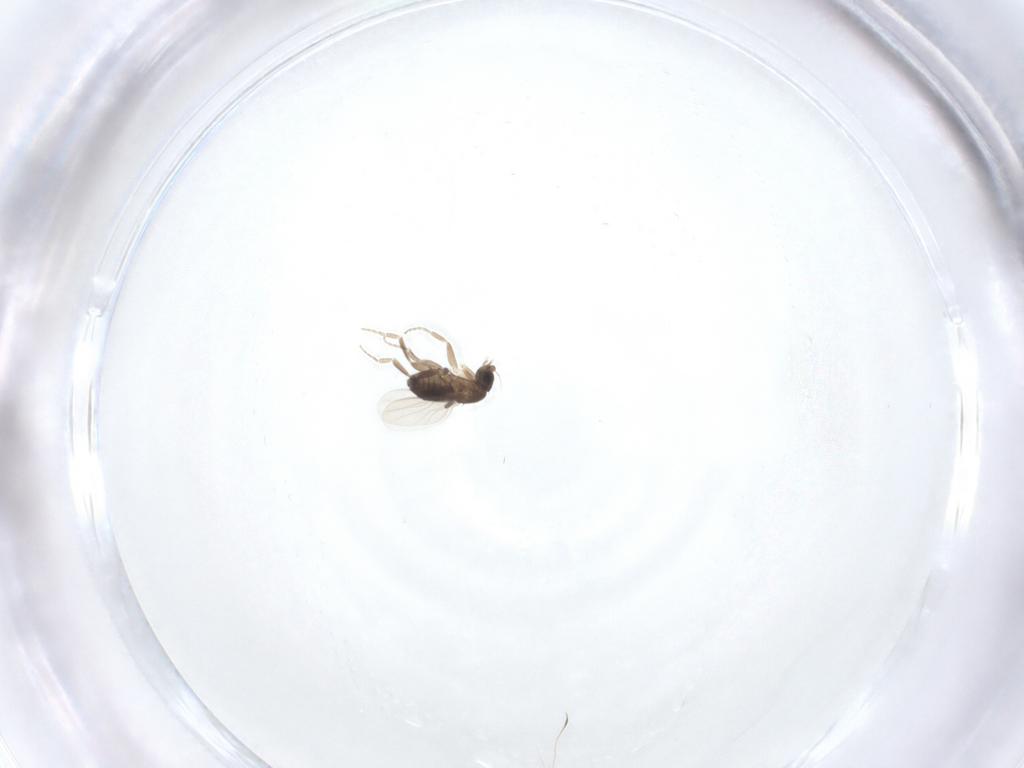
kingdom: Animalia
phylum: Arthropoda
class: Insecta
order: Diptera
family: Phoridae
